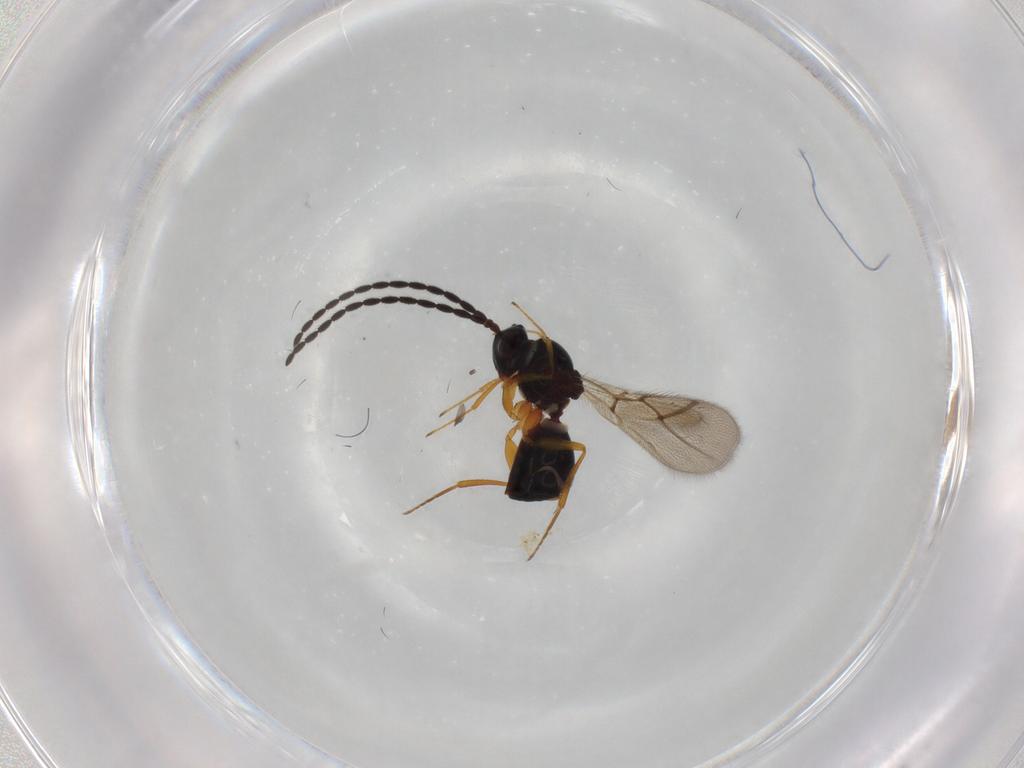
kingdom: Animalia
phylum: Arthropoda
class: Insecta
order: Hymenoptera
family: Figitidae
